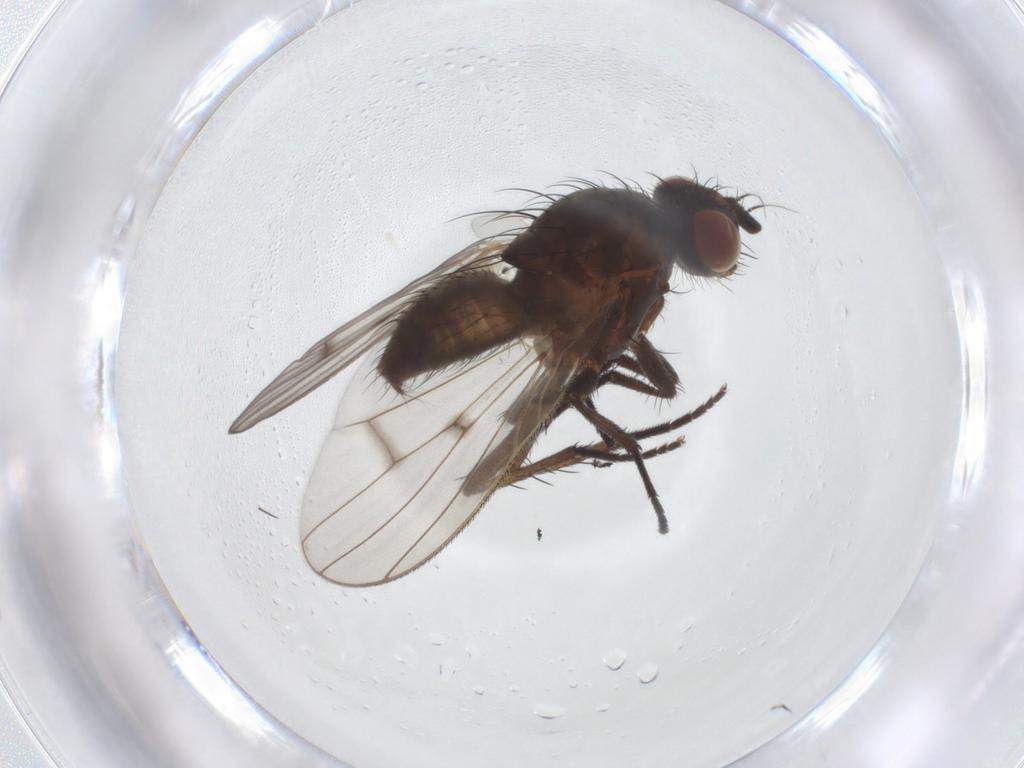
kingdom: Animalia
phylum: Arthropoda
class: Insecta
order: Diptera
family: Anthomyiidae
